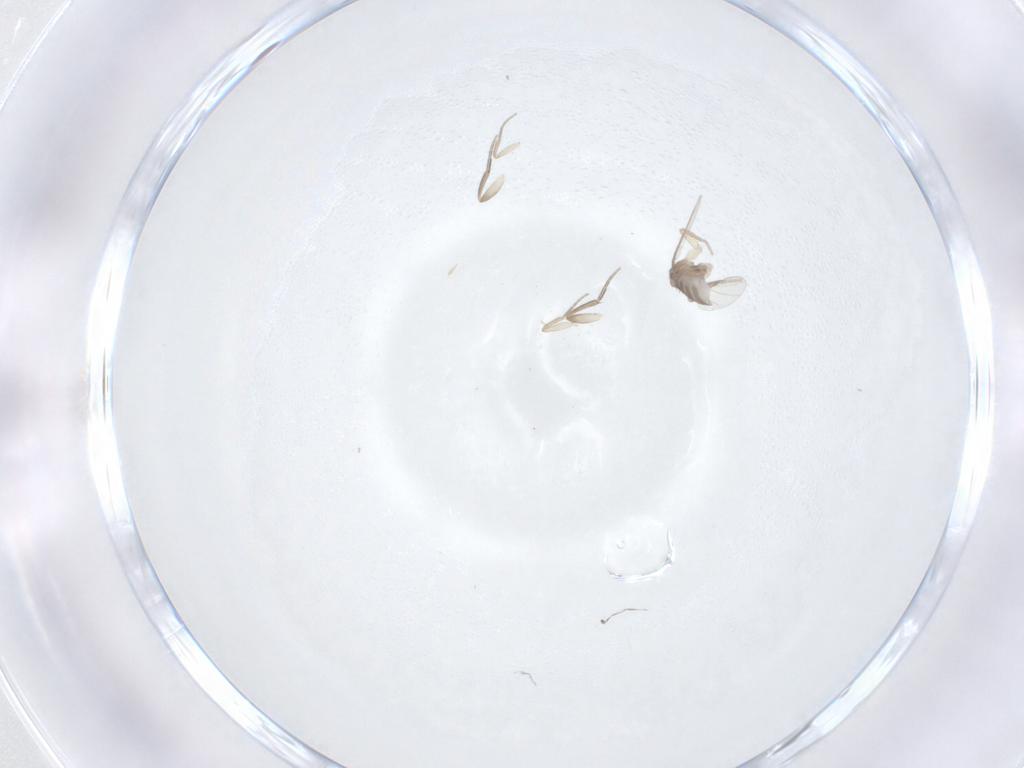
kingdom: Animalia
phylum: Arthropoda
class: Insecta
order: Diptera
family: Phoridae
